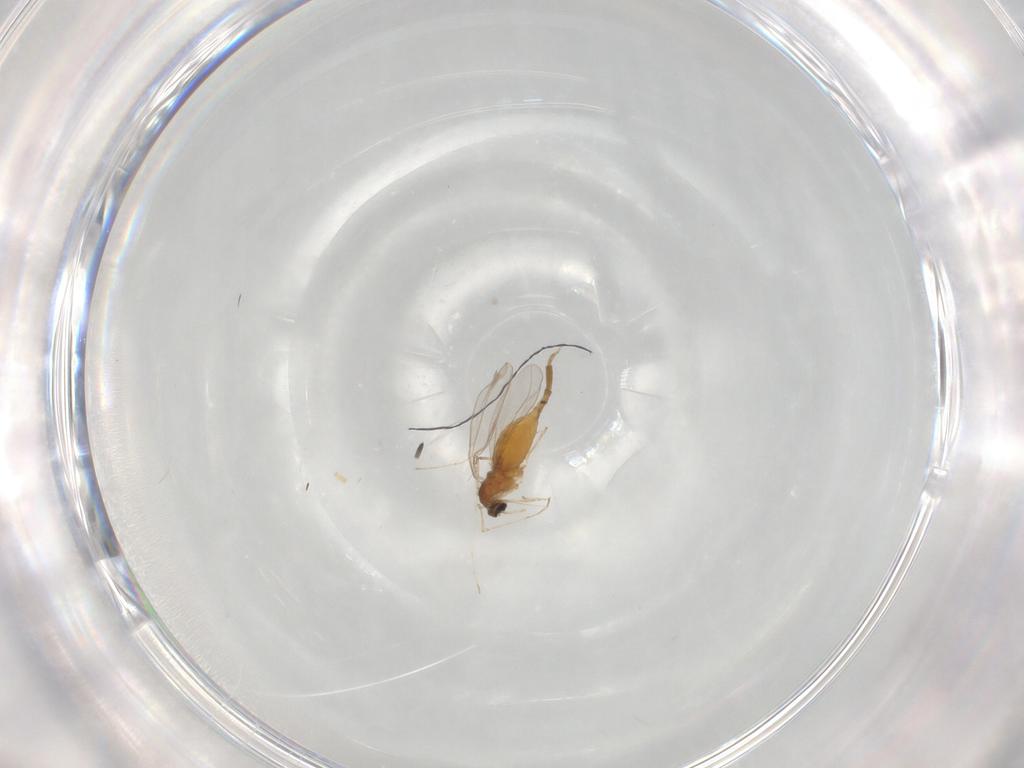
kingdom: Animalia
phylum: Arthropoda
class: Insecta
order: Diptera
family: Cecidomyiidae
